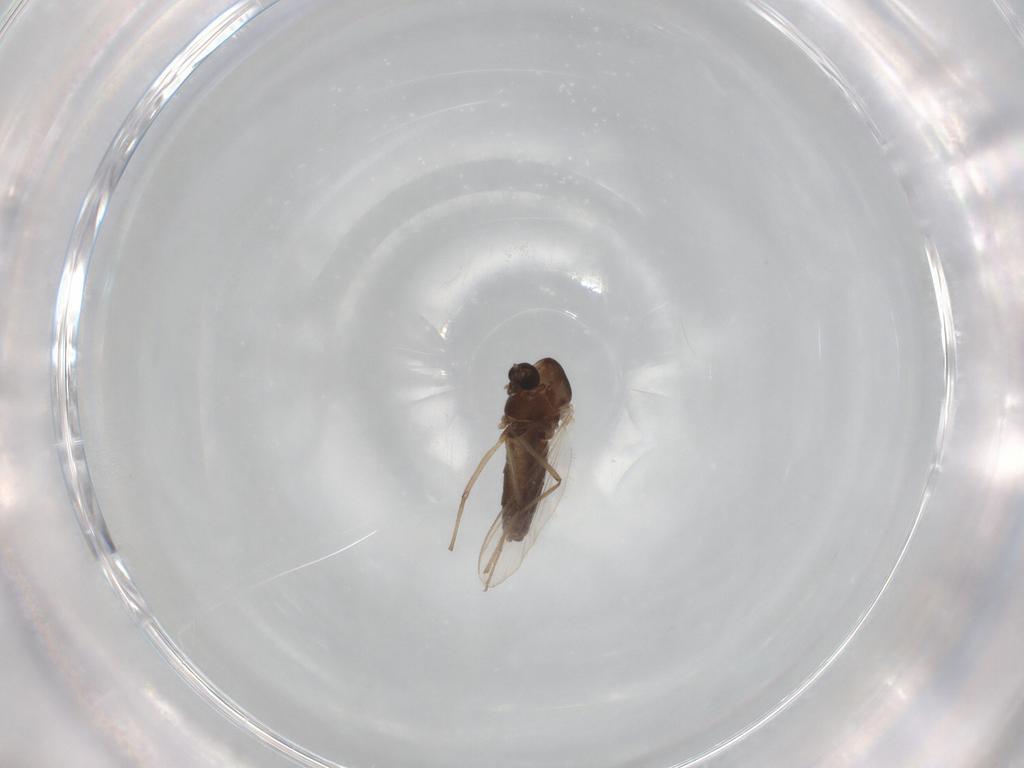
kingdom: Animalia
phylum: Arthropoda
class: Insecta
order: Diptera
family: Chironomidae
